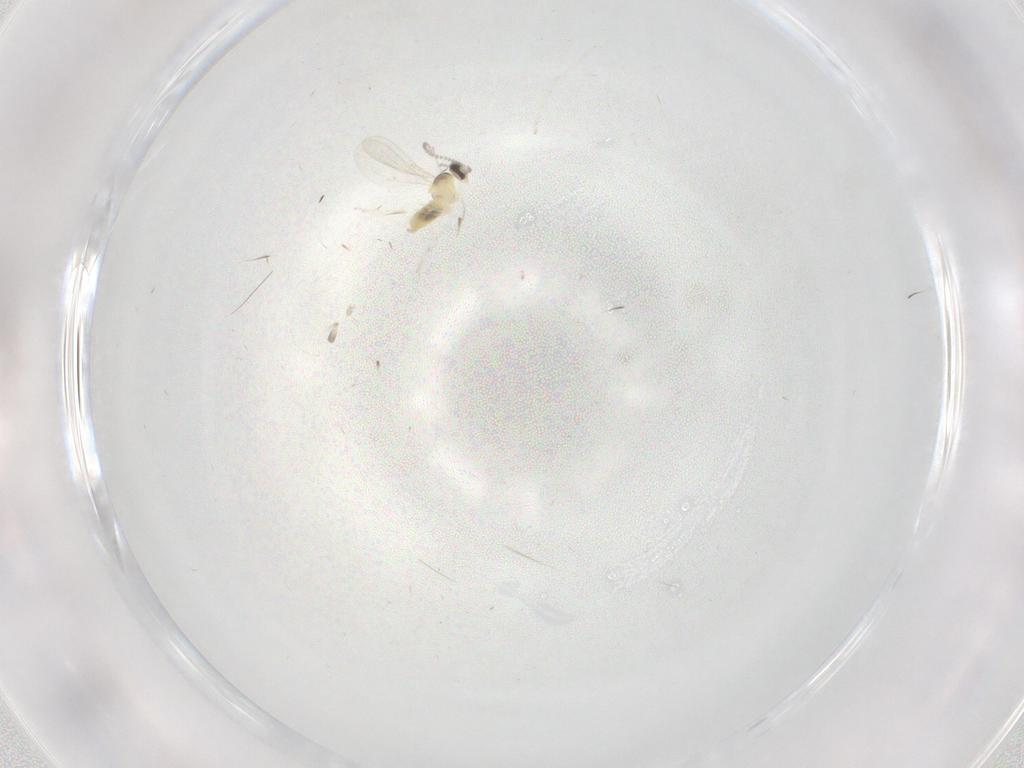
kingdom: Animalia
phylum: Arthropoda
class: Insecta
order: Diptera
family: Cecidomyiidae
